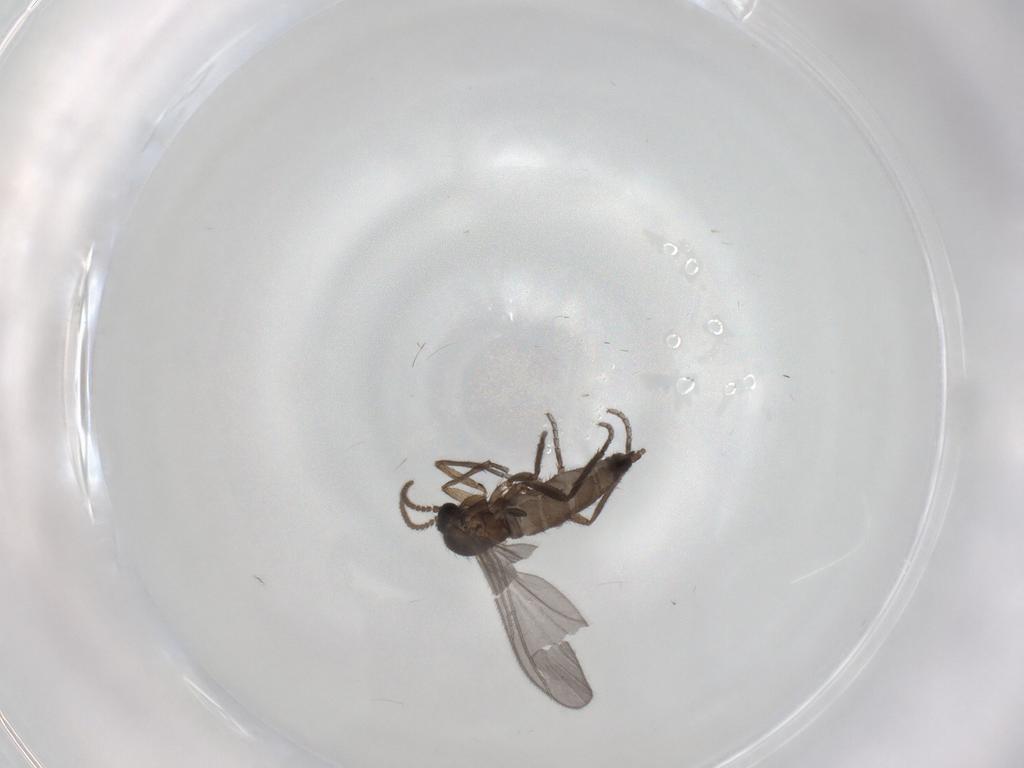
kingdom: Animalia
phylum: Arthropoda
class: Insecta
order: Diptera
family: Sciaridae
